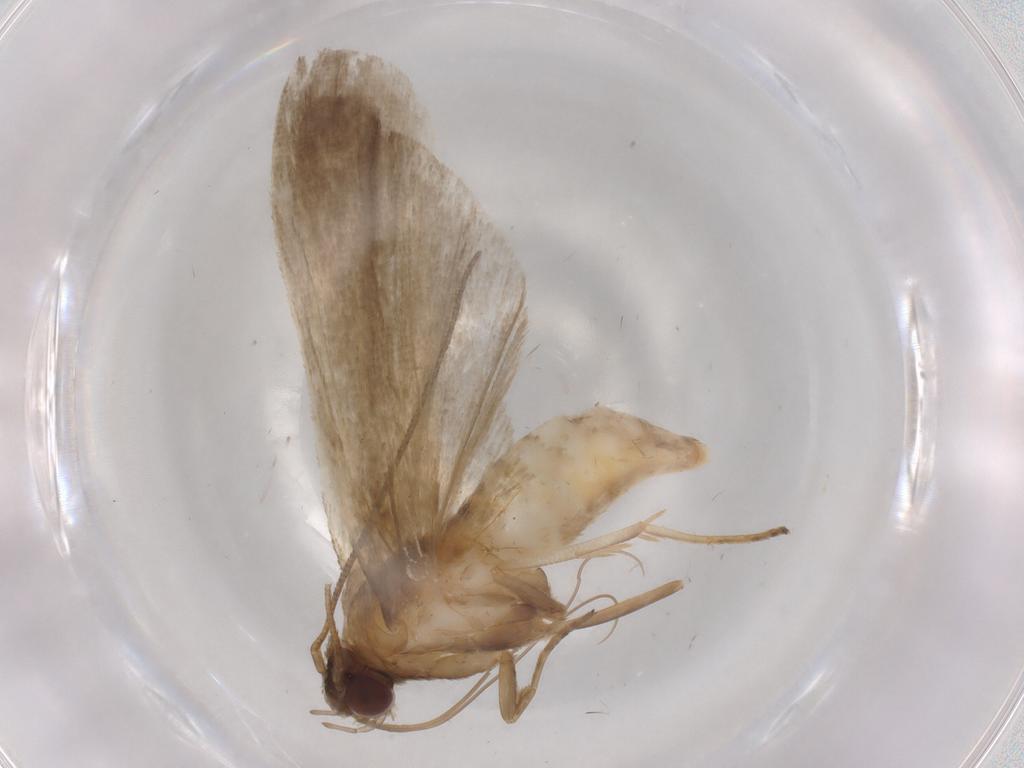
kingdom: Animalia
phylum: Arthropoda
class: Insecta
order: Lepidoptera
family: Noctuidae
